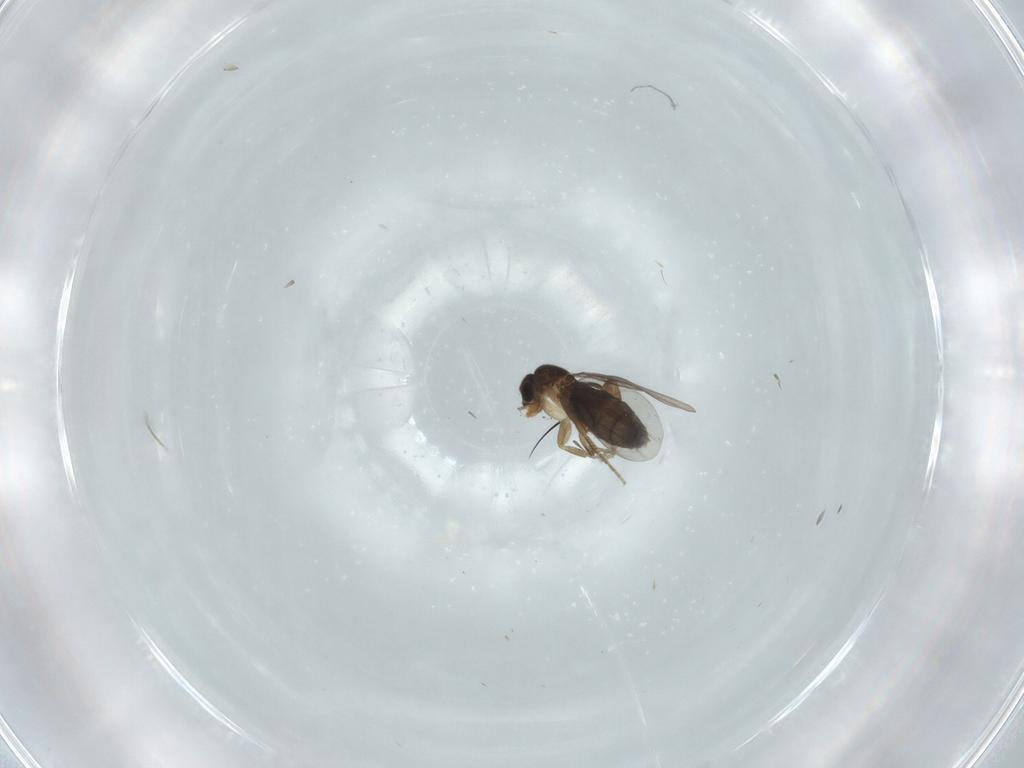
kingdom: Animalia
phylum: Arthropoda
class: Insecta
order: Diptera
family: Phoridae
